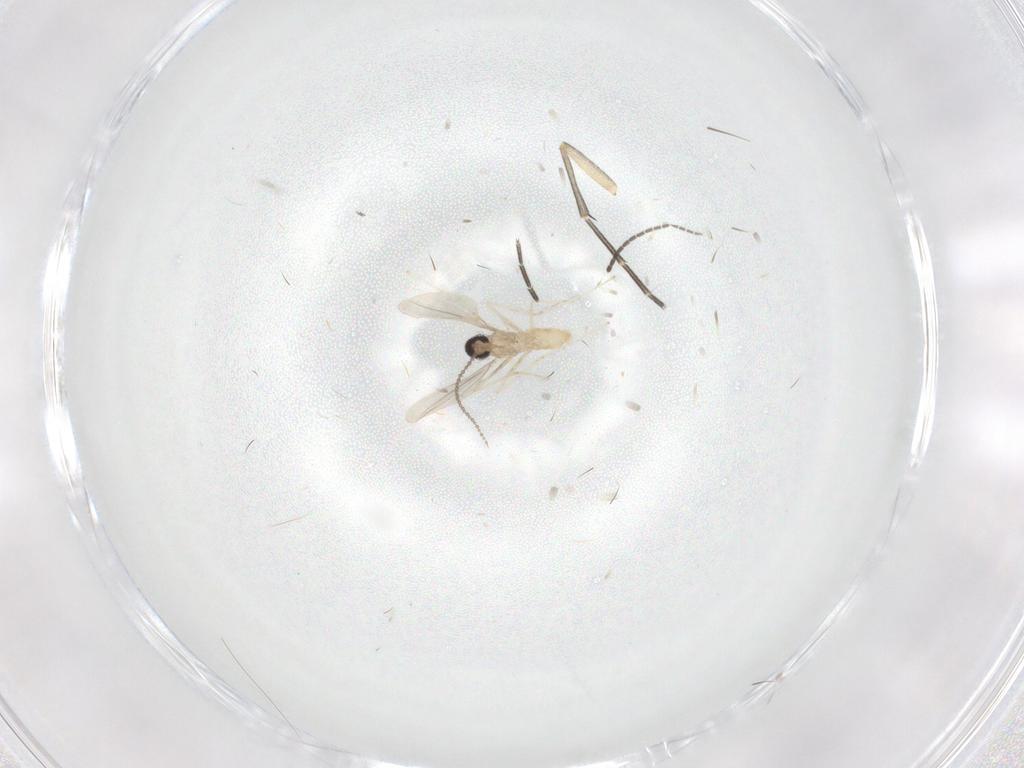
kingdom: Animalia
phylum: Arthropoda
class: Insecta
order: Diptera
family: Cecidomyiidae
